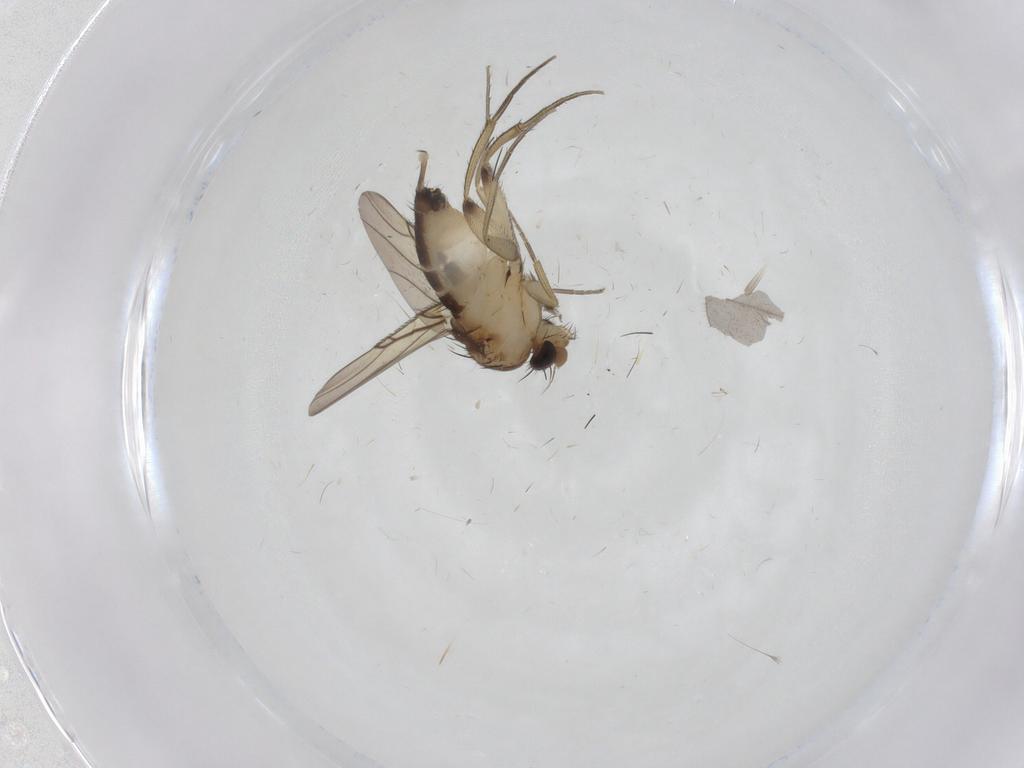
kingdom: Animalia
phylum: Arthropoda
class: Insecta
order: Diptera
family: Phoridae
